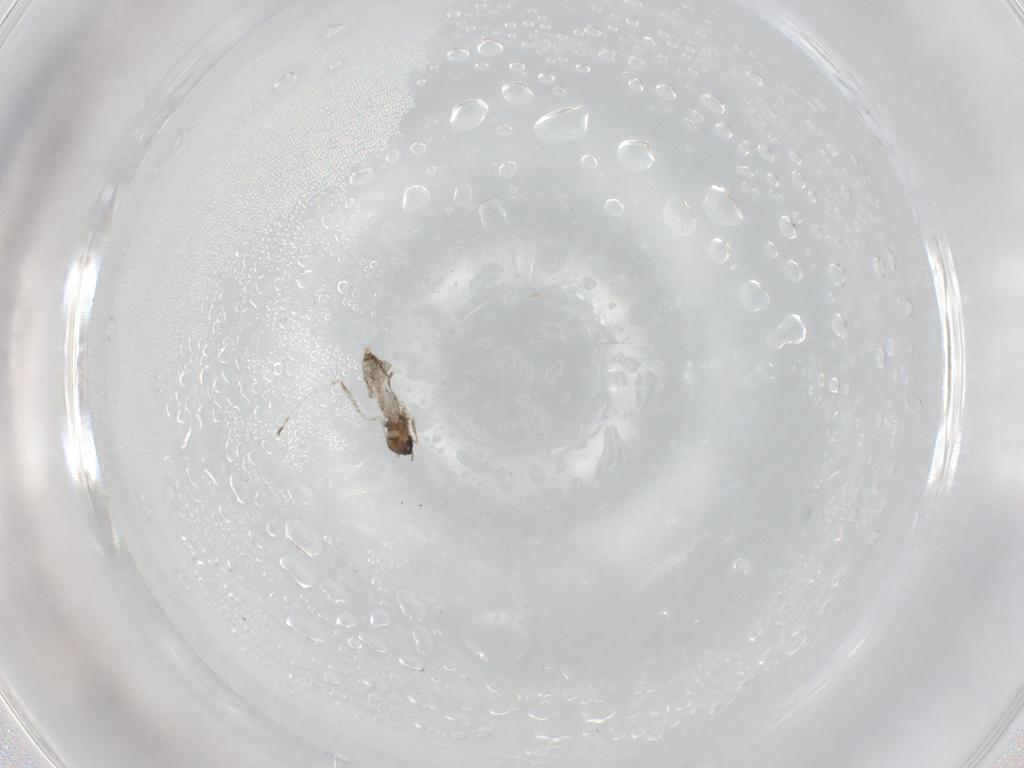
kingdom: Animalia
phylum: Arthropoda
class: Insecta
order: Diptera
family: Cecidomyiidae
